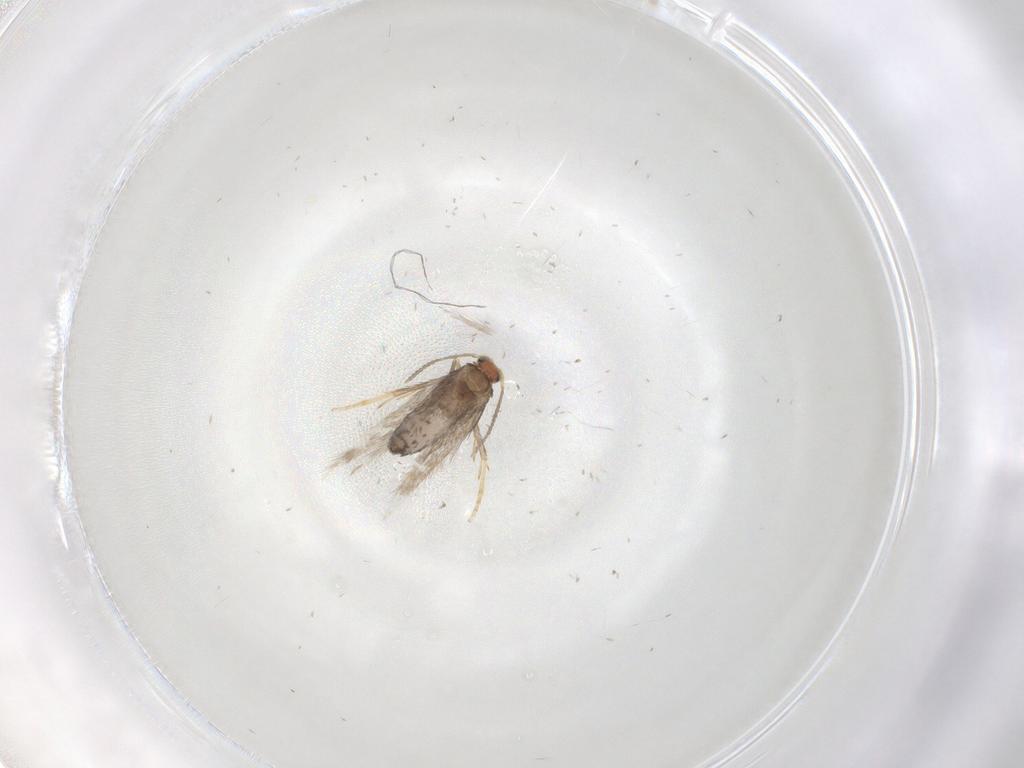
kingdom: Animalia
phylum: Arthropoda
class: Insecta
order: Lepidoptera
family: Nepticulidae
